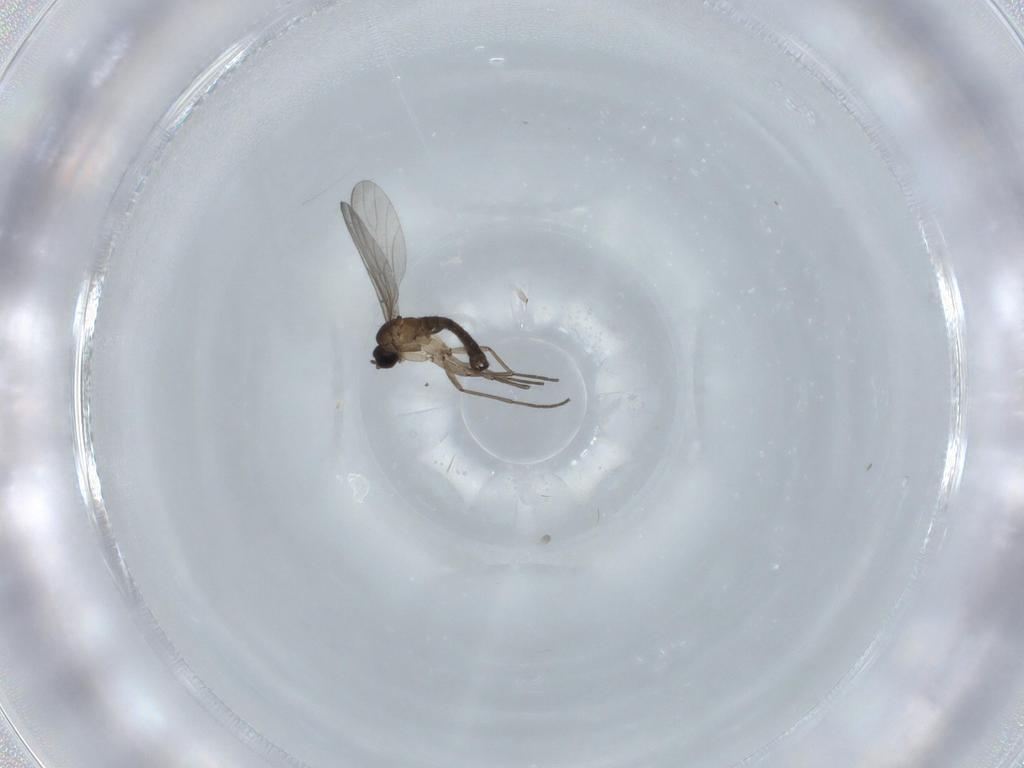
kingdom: Animalia
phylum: Arthropoda
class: Insecta
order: Diptera
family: Sciaridae
